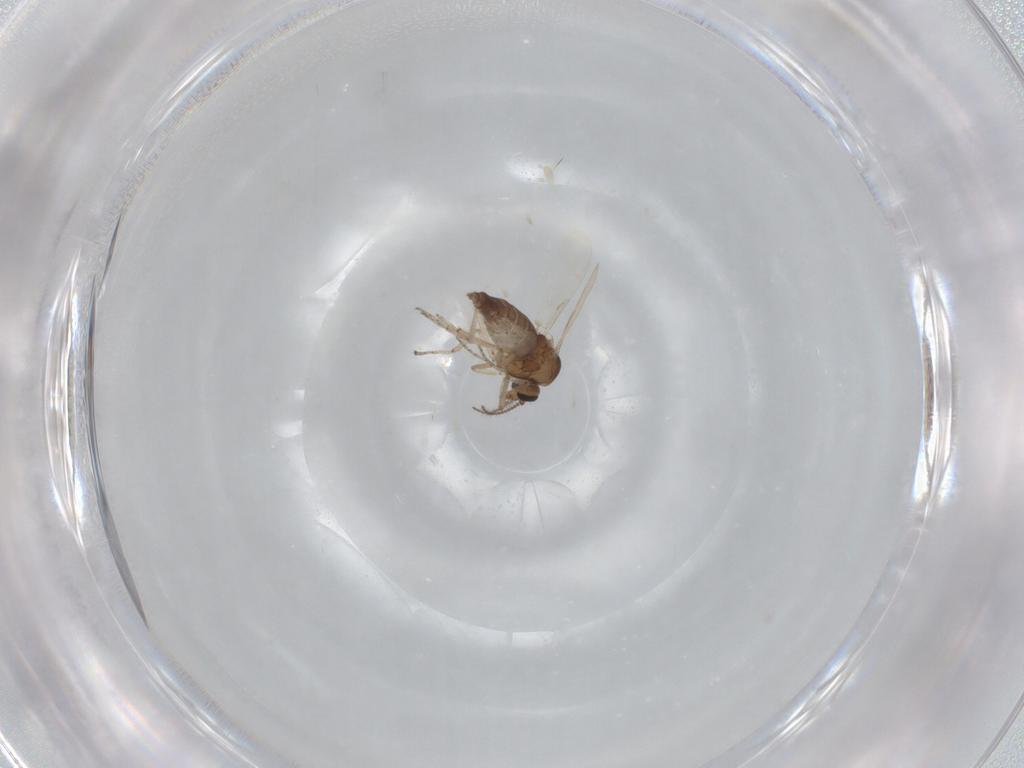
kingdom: Animalia
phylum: Arthropoda
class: Insecta
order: Diptera
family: Ceratopogonidae
